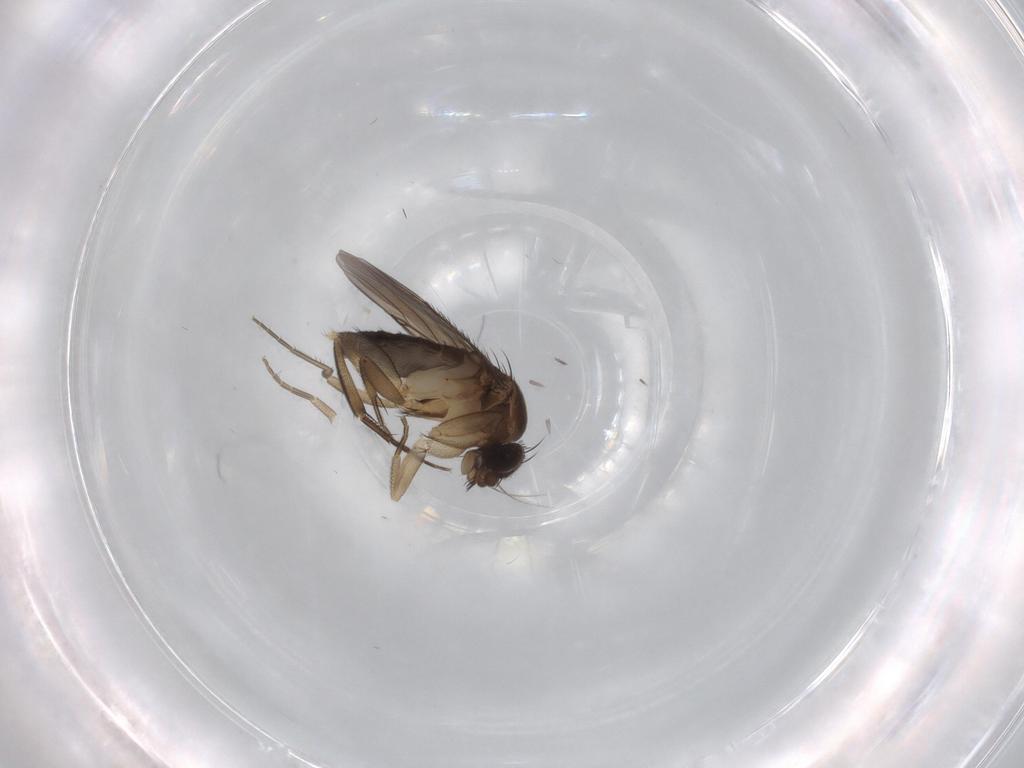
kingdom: Animalia
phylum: Arthropoda
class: Insecta
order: Diptera
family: Phoridae
